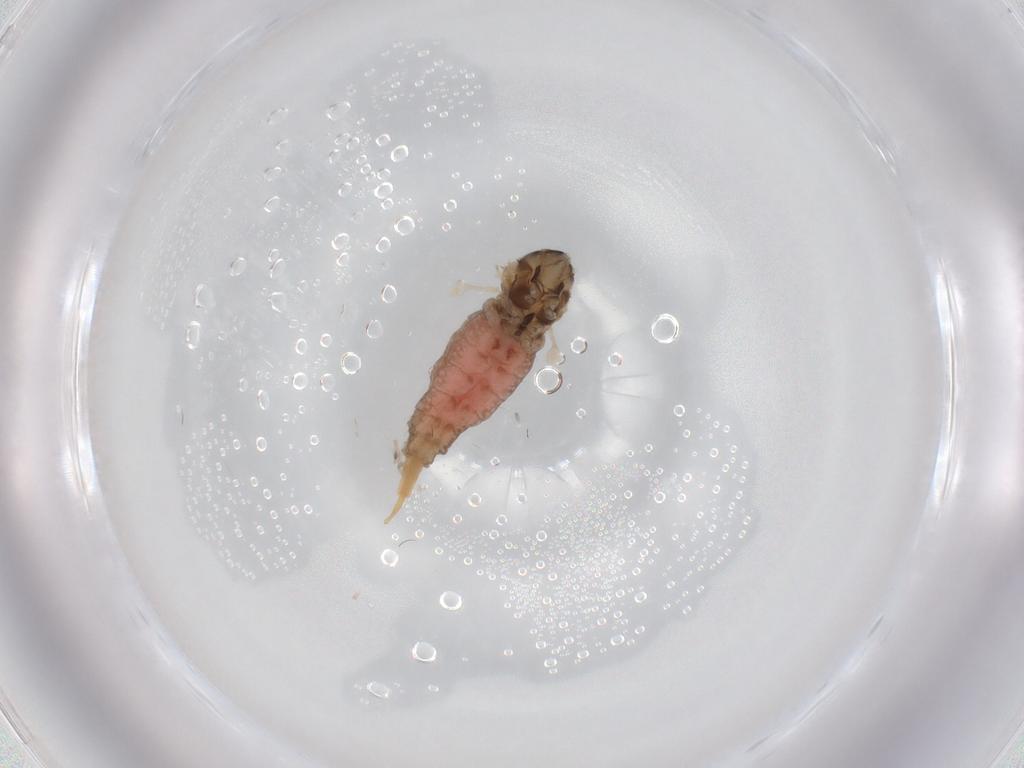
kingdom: Animalia
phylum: Arthropoda
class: Insecta
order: Diptera
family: Cecidomyiidae
